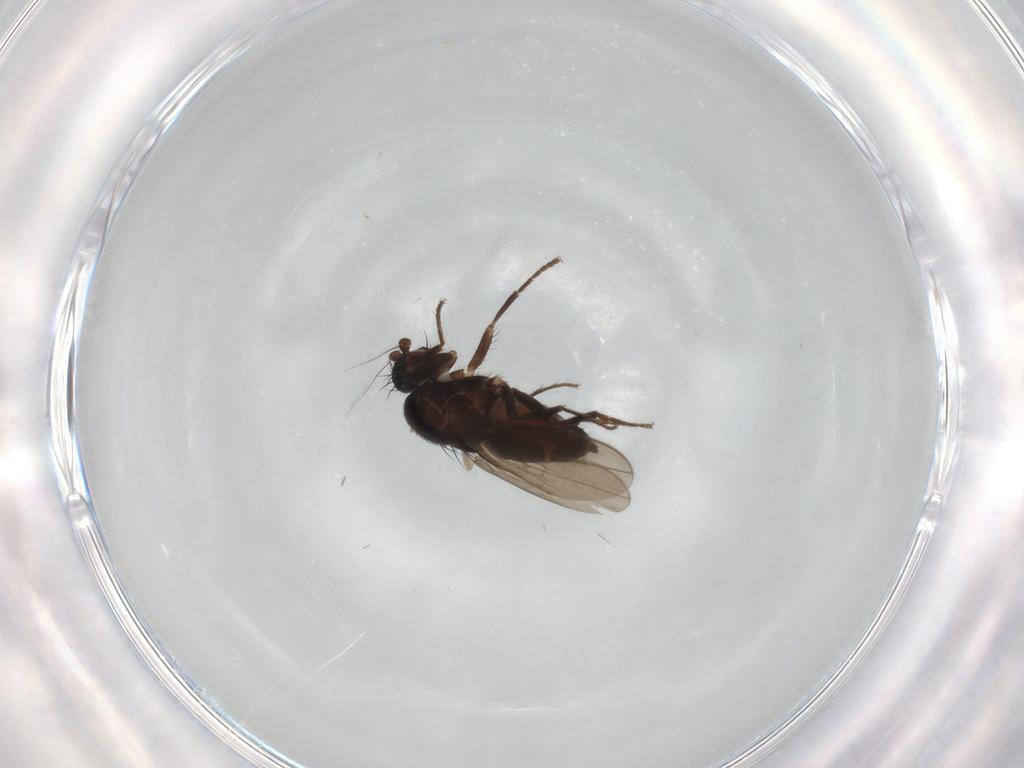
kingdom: Animalia
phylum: Arthropoda
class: Insecta
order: Diptera
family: Sphaeroceridae
